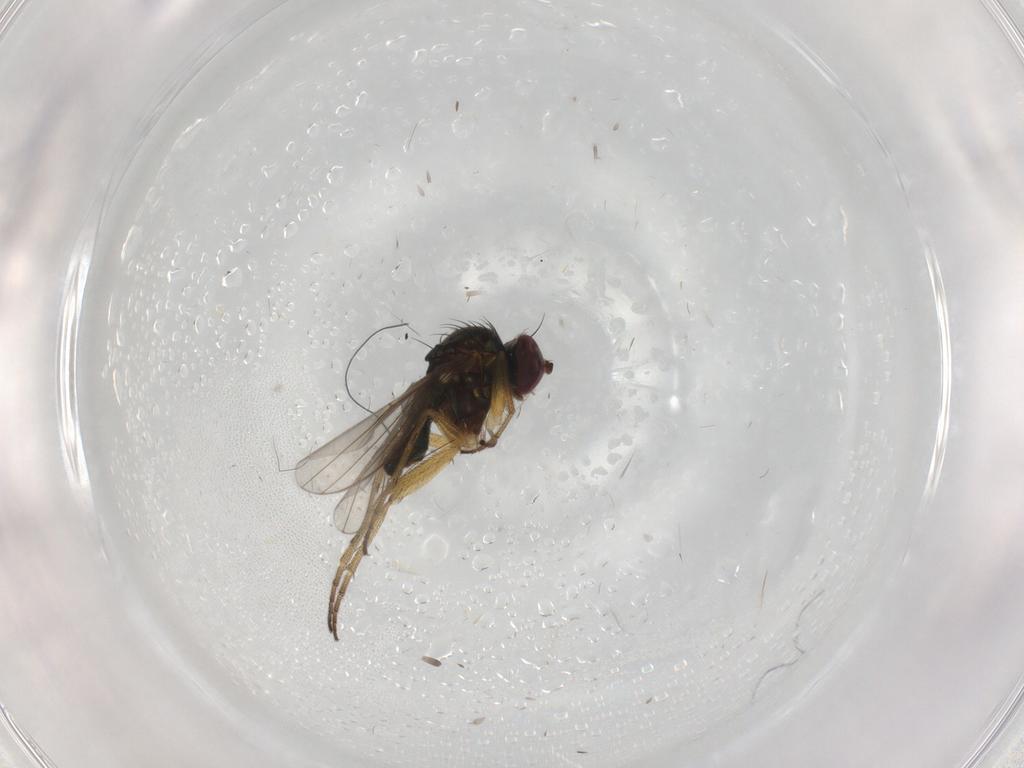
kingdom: Animalia
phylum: Arthropoda
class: Insecta
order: Diptera
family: Dolichopodidae
